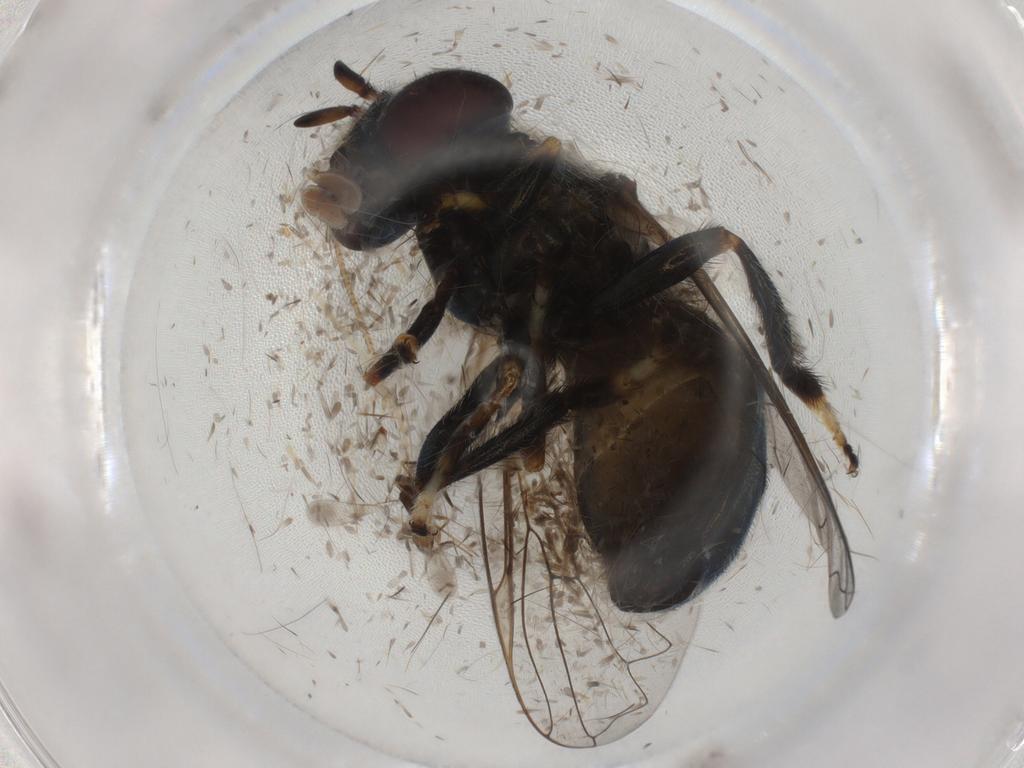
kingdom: Animalia
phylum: Arthropoda
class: Insecta
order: Diptera
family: Syrphidae
